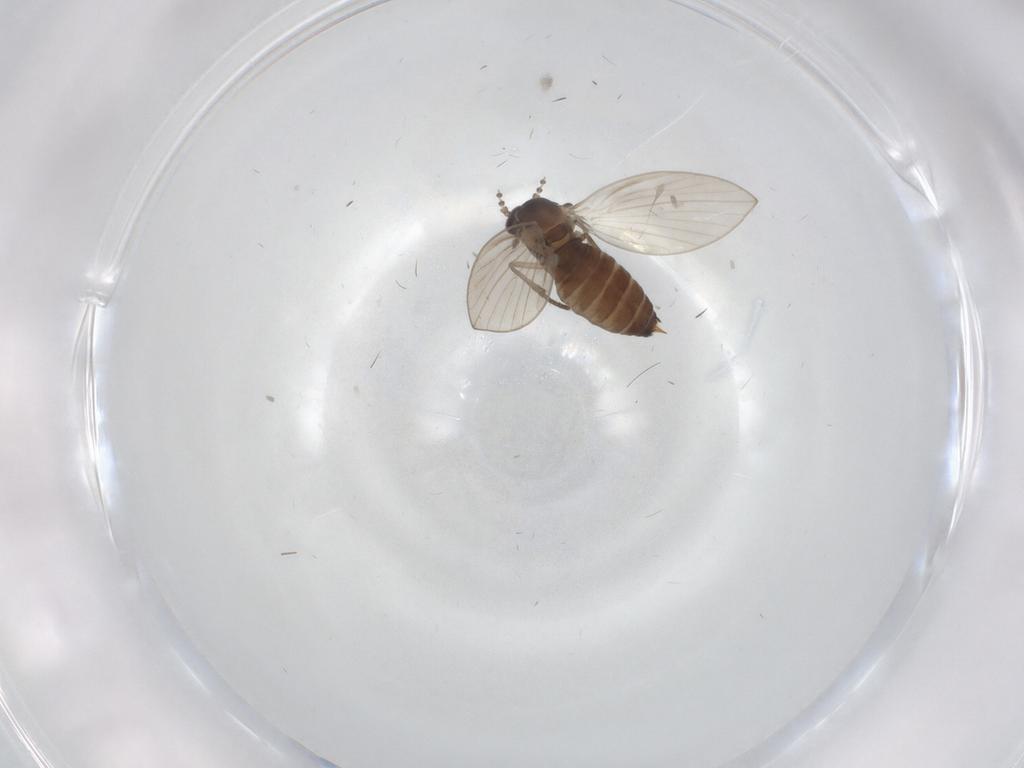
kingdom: Animalia
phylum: Arthropoda
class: Insecta
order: Diptera
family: Psychodidae
